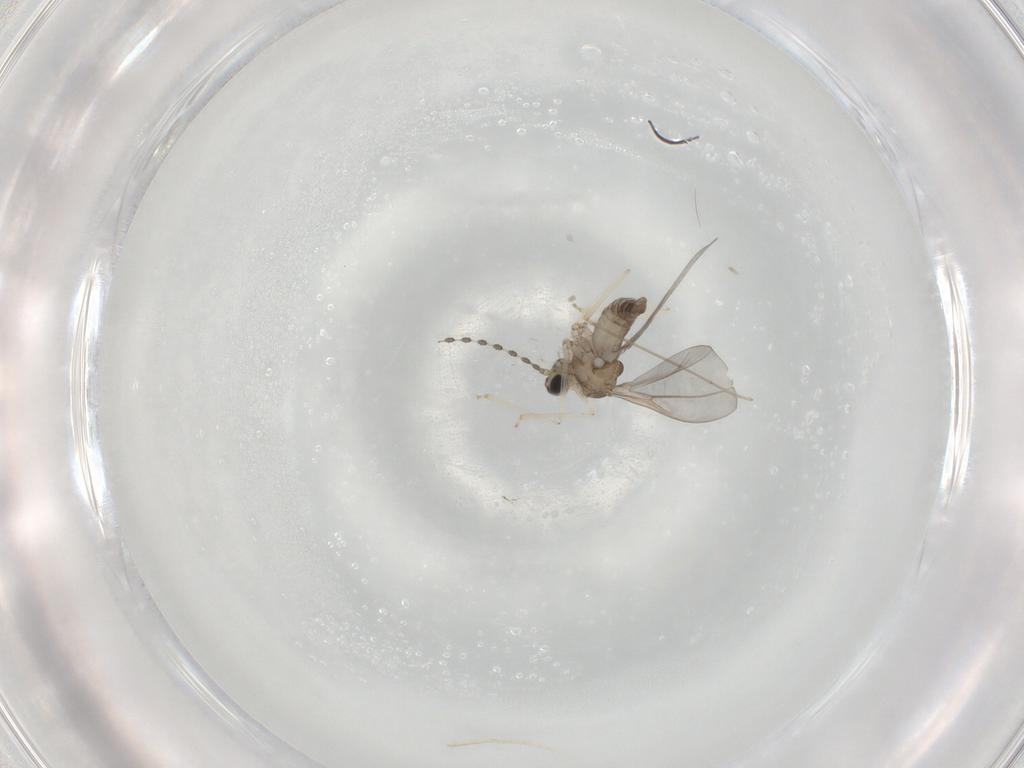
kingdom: Animalia
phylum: Arthropoda
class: Insecta
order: Diptera
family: Cecidomyiidae
